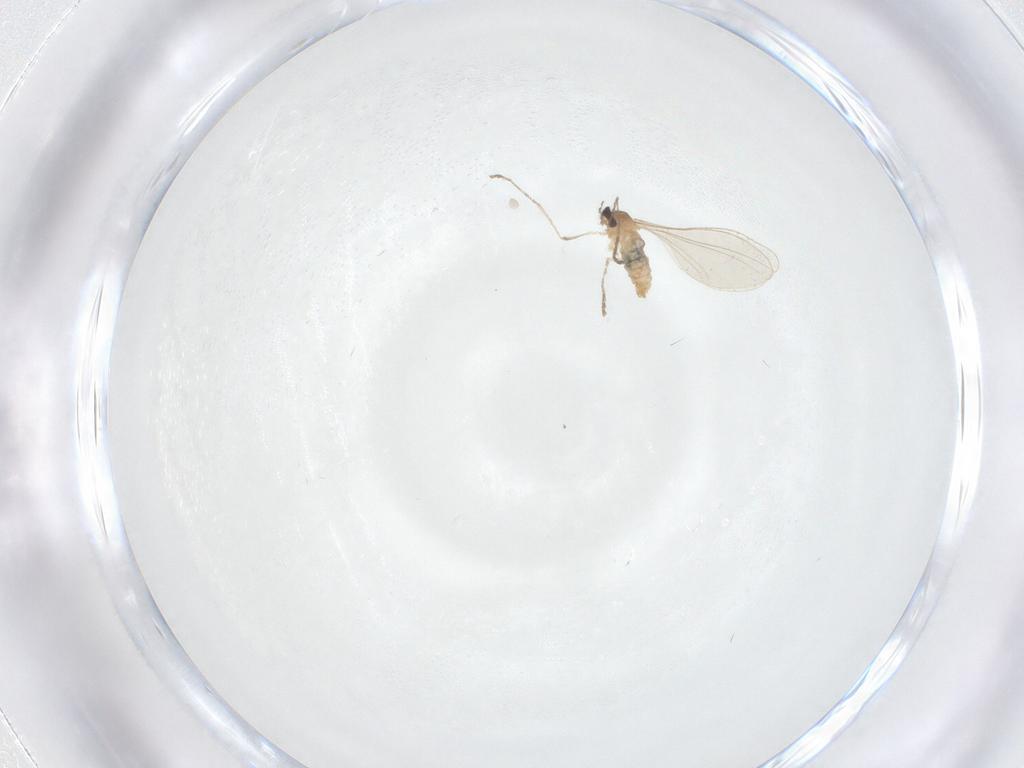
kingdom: Animalia
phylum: Arthropoda
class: Insecta
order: Diptera
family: Cecidomyiidae
